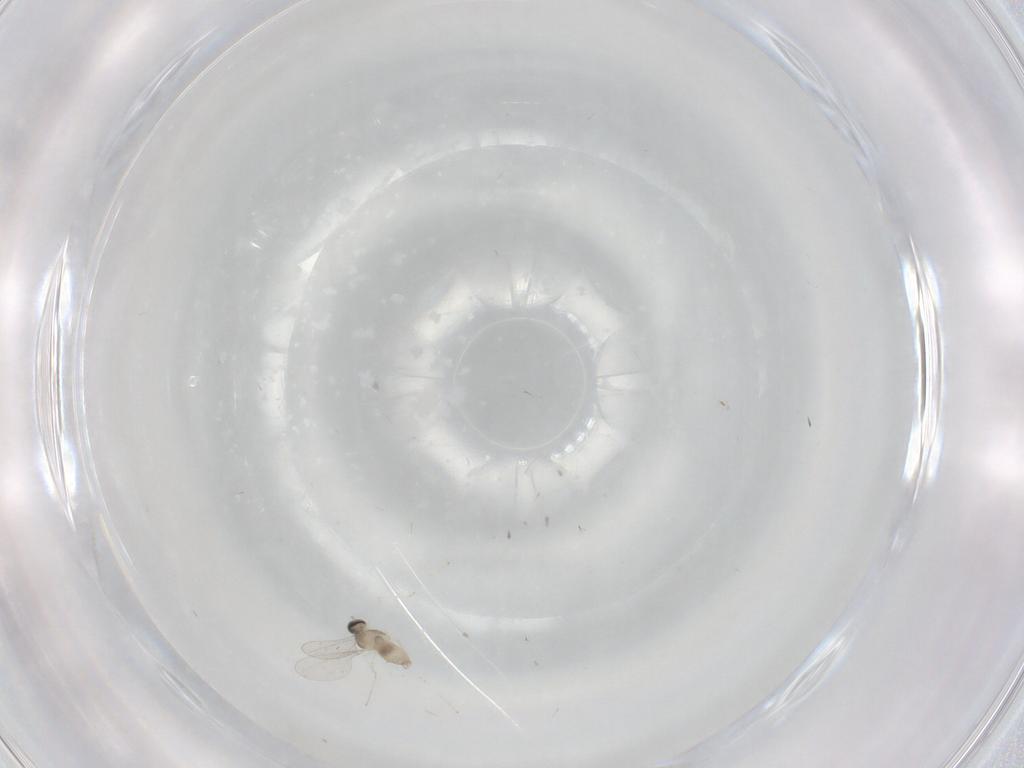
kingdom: Animalia
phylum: Arthropoda
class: Insecta
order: Diptera
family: Cecidomyiidae
